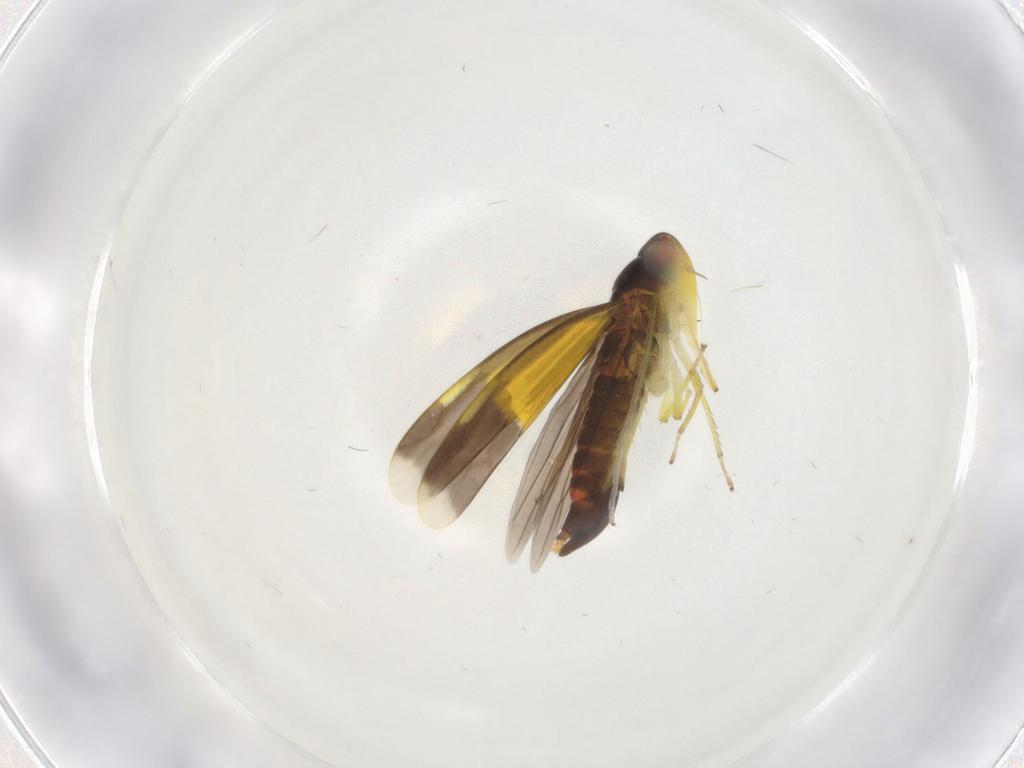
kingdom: Animalia
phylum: Arthropoda
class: Insecta
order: Hemiptera
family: Cicadellidae
